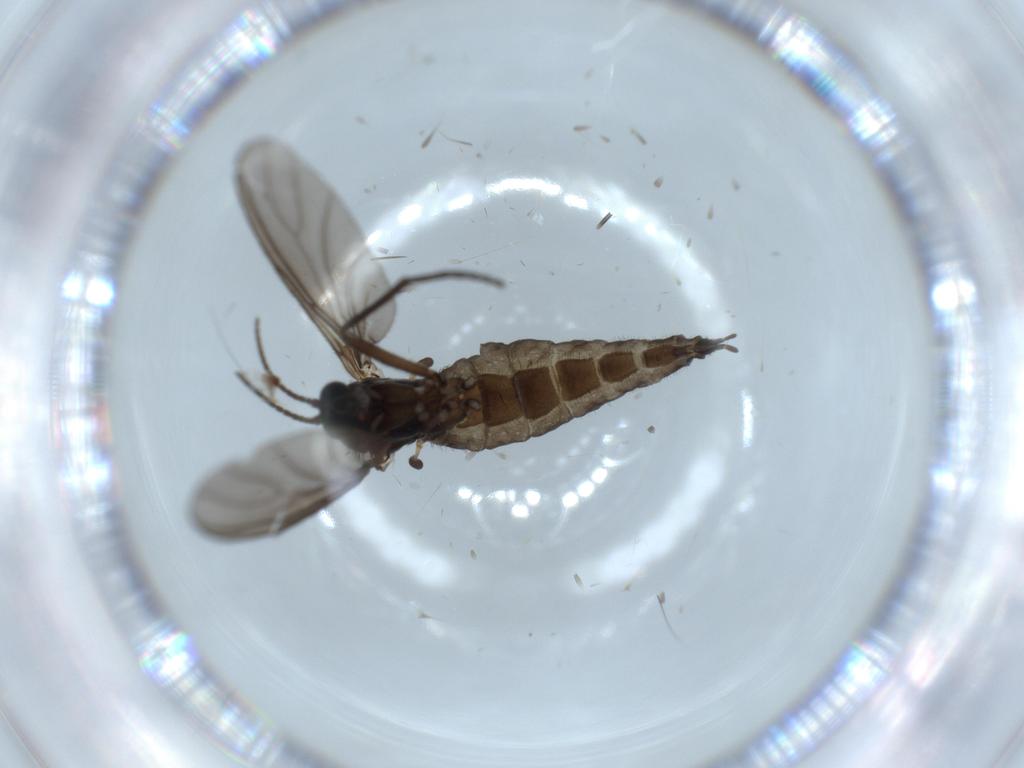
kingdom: Animalia
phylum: Arthropoda
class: Insecta
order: Diptera
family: Sciaridae
